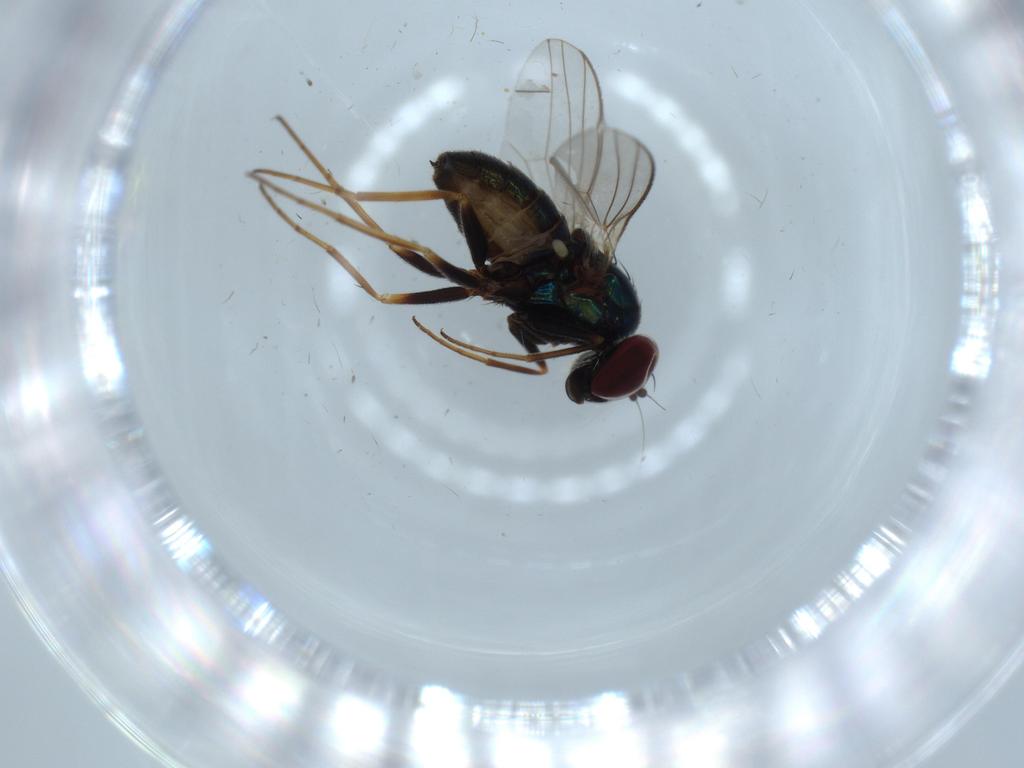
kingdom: Animalia
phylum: Arthropoda
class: Insecta
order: Diptera
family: Dolichopodidae
